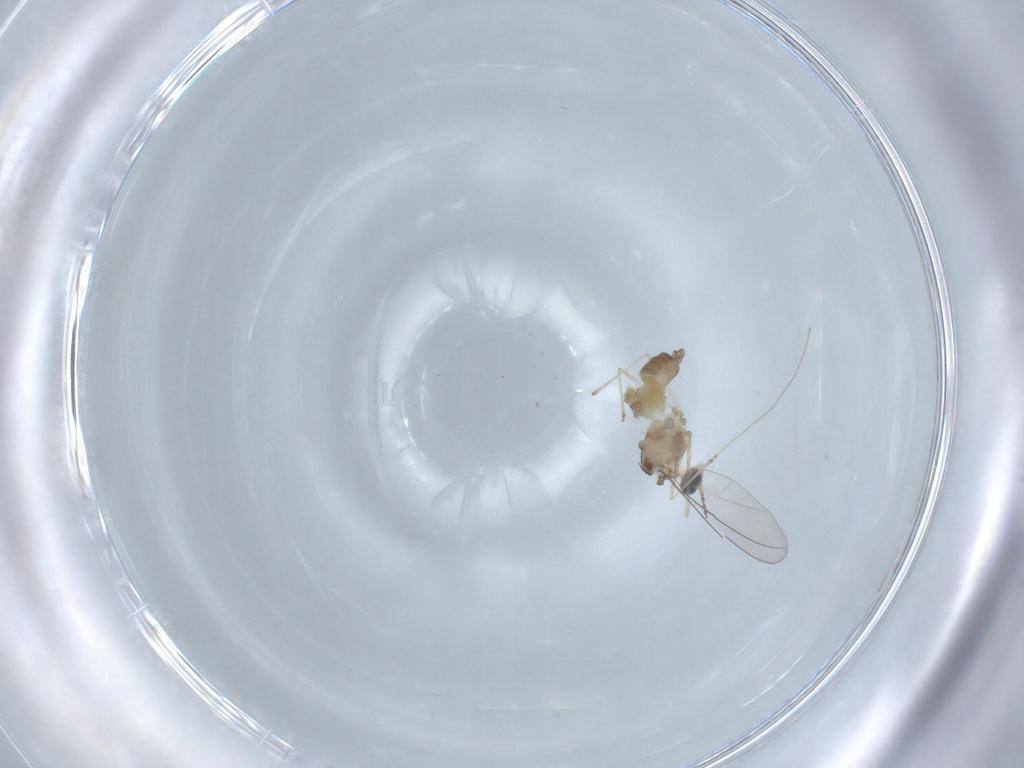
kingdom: Animalia
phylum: Arthropoda
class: Insecta
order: Diptera
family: Cecidomyiidae
